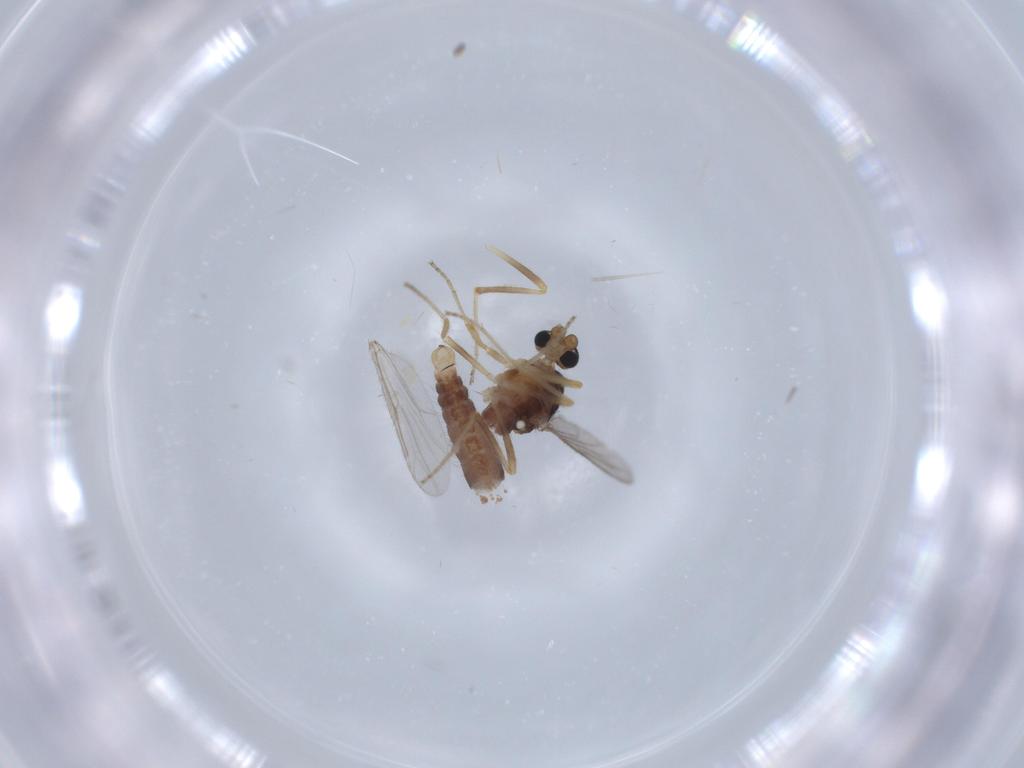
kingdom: Animalia
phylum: Arthropoda
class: Insecta
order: Diptera
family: Ceratopogonidae
